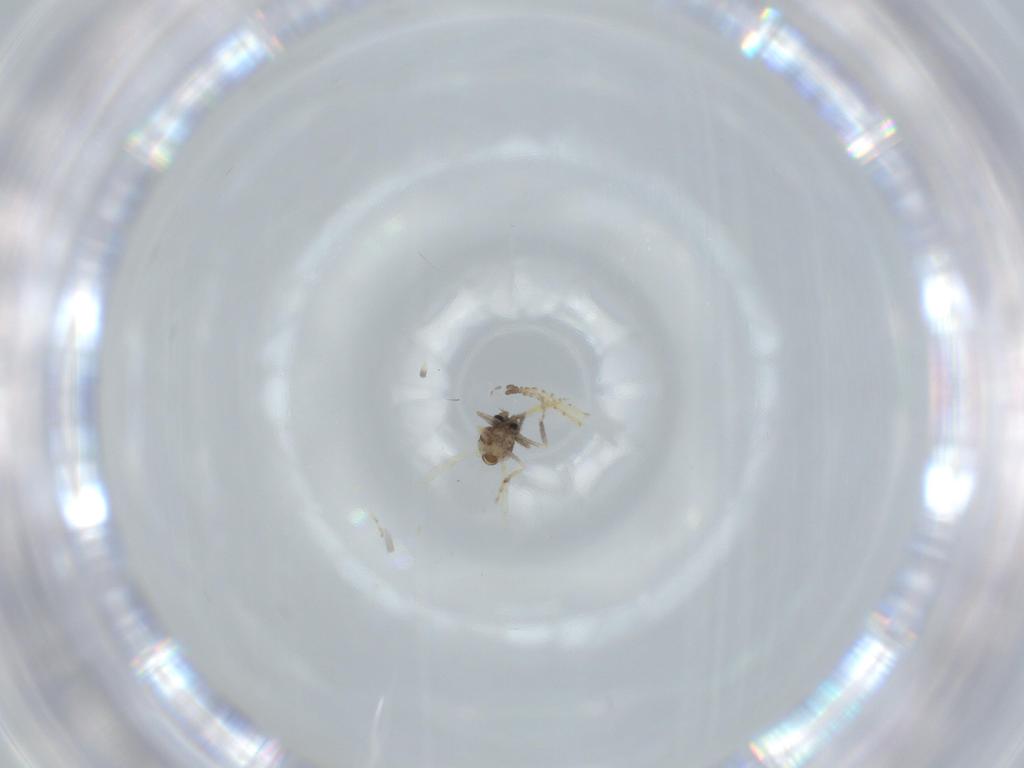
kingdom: Animalia
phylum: Arthropoda
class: Insecta
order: Diptera
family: Ceratopogonidae
